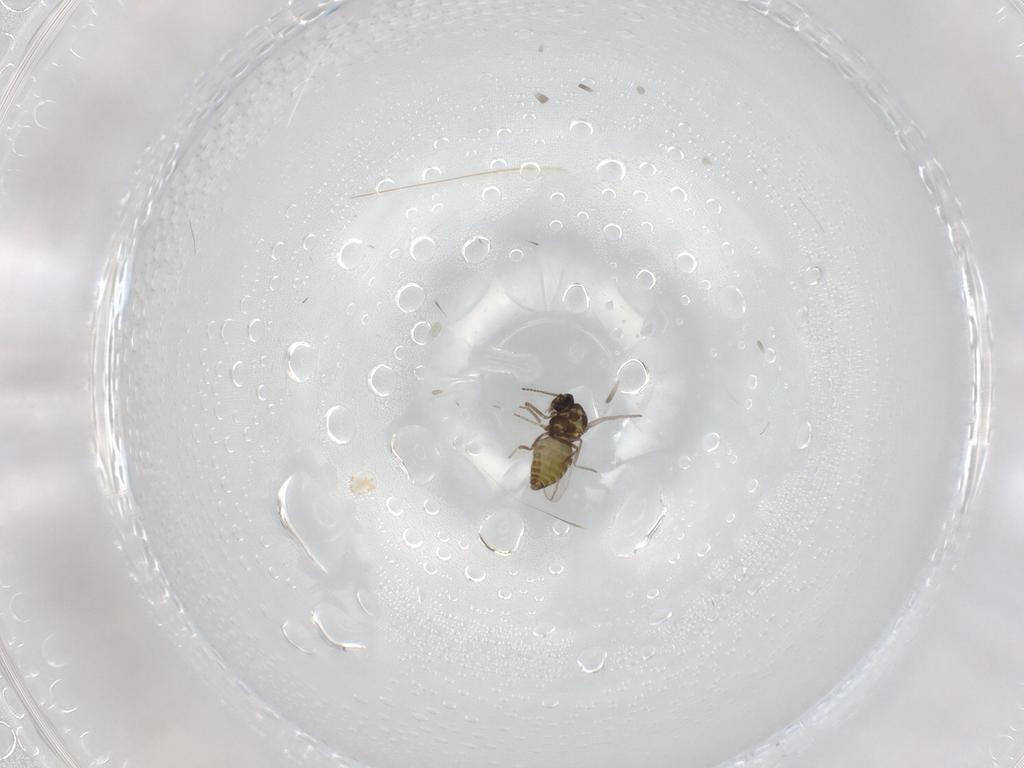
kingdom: Animalia
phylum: Arthropoda
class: Insecta
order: Diptera
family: Ceratopogonidae
